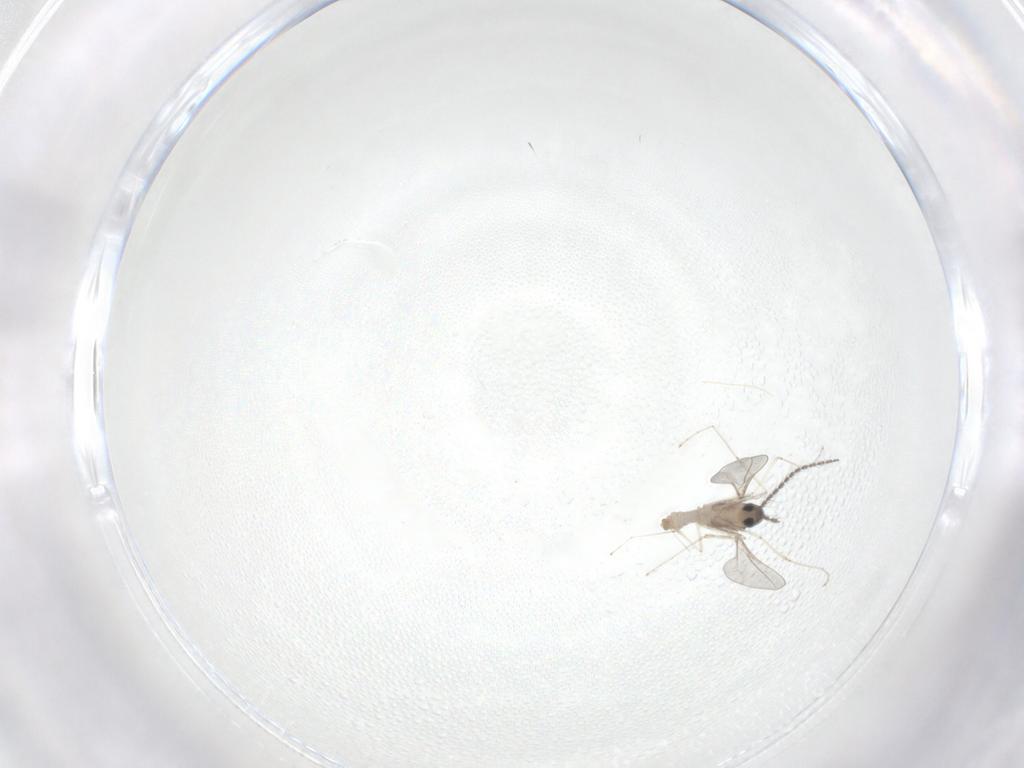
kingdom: Animalia
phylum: Arthropoda
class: Insecta
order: Diptera
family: Cecidomyiidae
